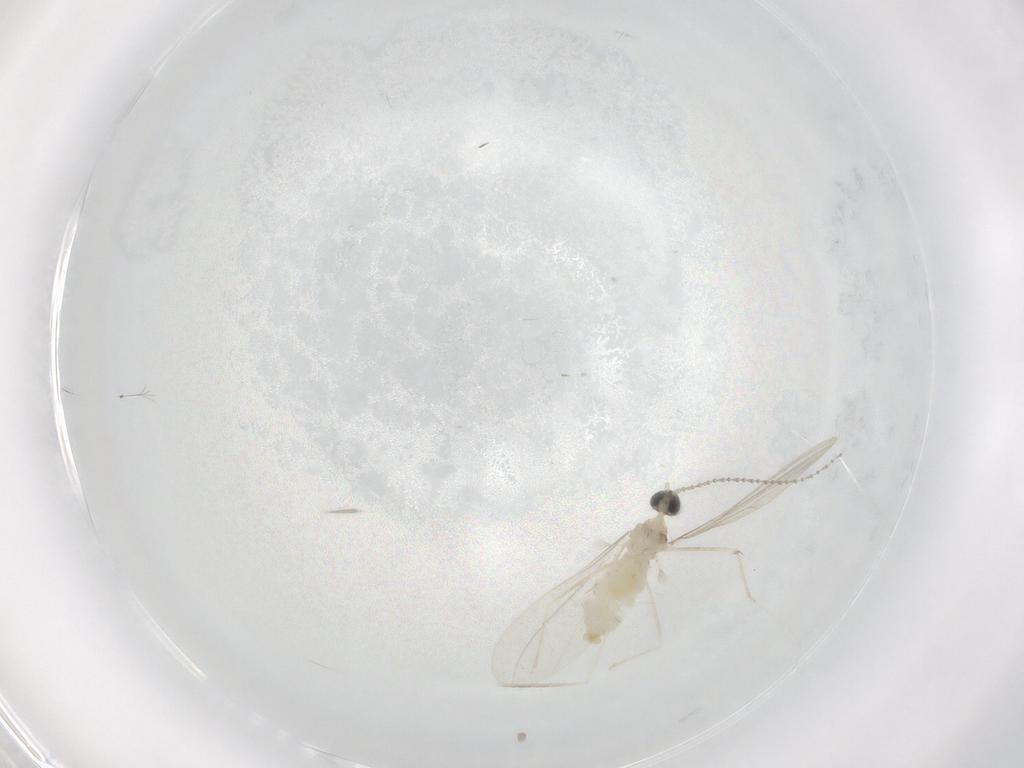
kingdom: Animalia
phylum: Arthropoda
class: Insecta
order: Diptera
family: Cecidomyiidae
